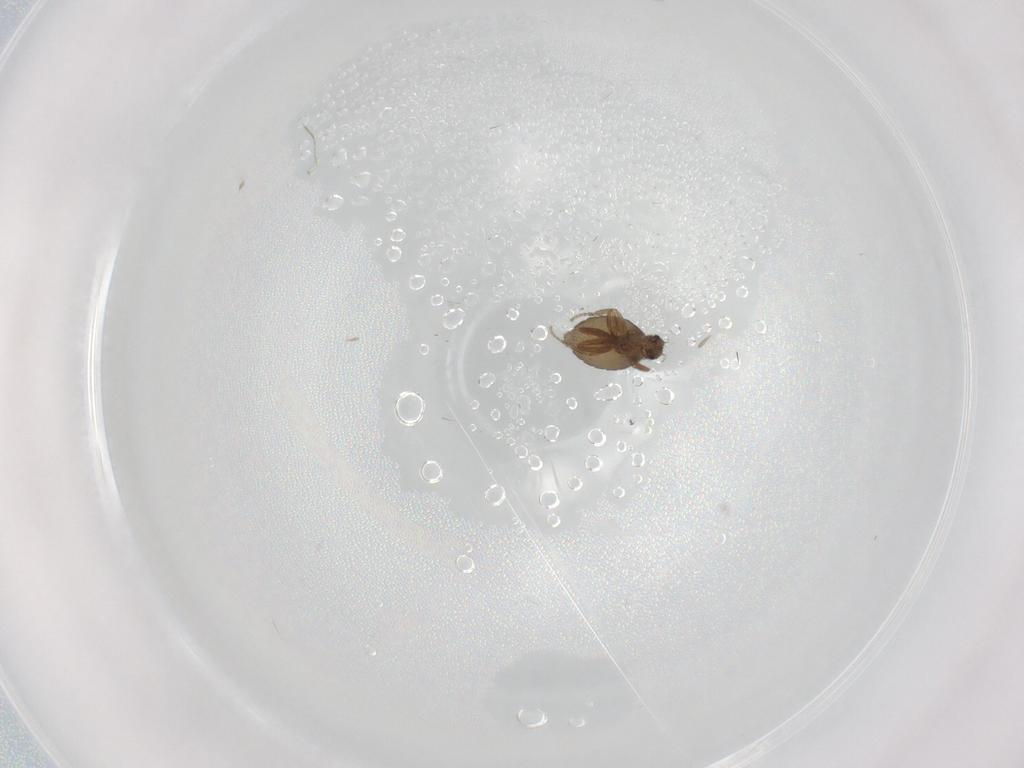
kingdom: Animalia
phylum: Arthropoda
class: Insecta
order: Diptera
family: Phoridae
